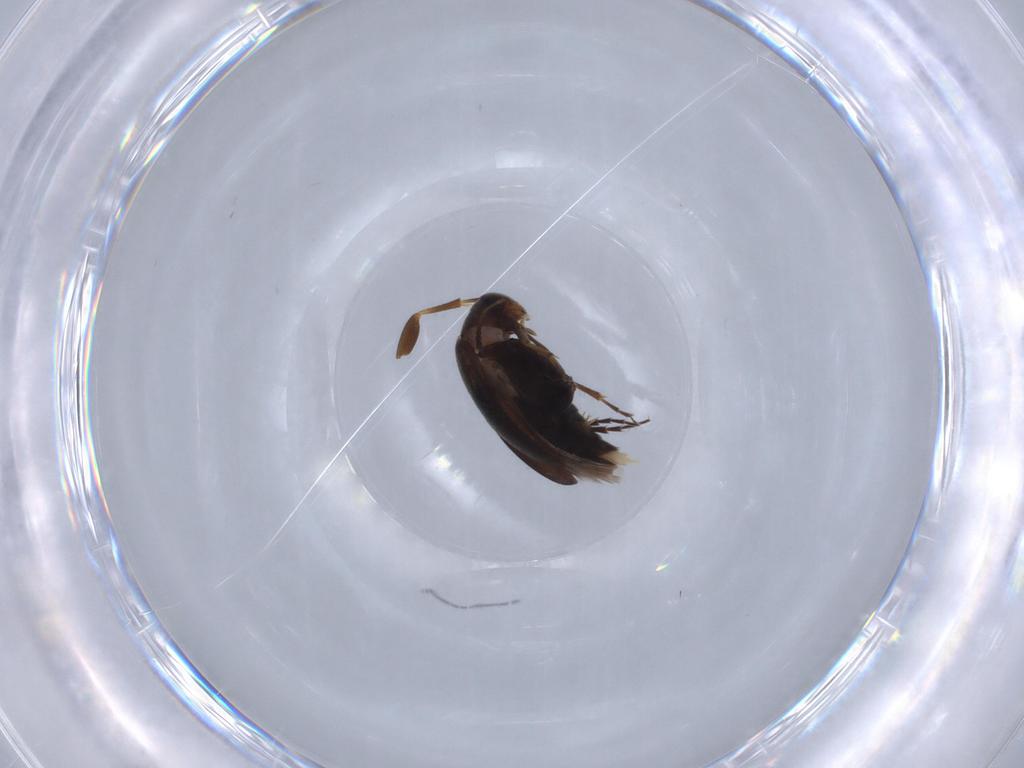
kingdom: Animalia
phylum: Arthropoda
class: Insecta
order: Coleoptera
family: Scraptiidae
